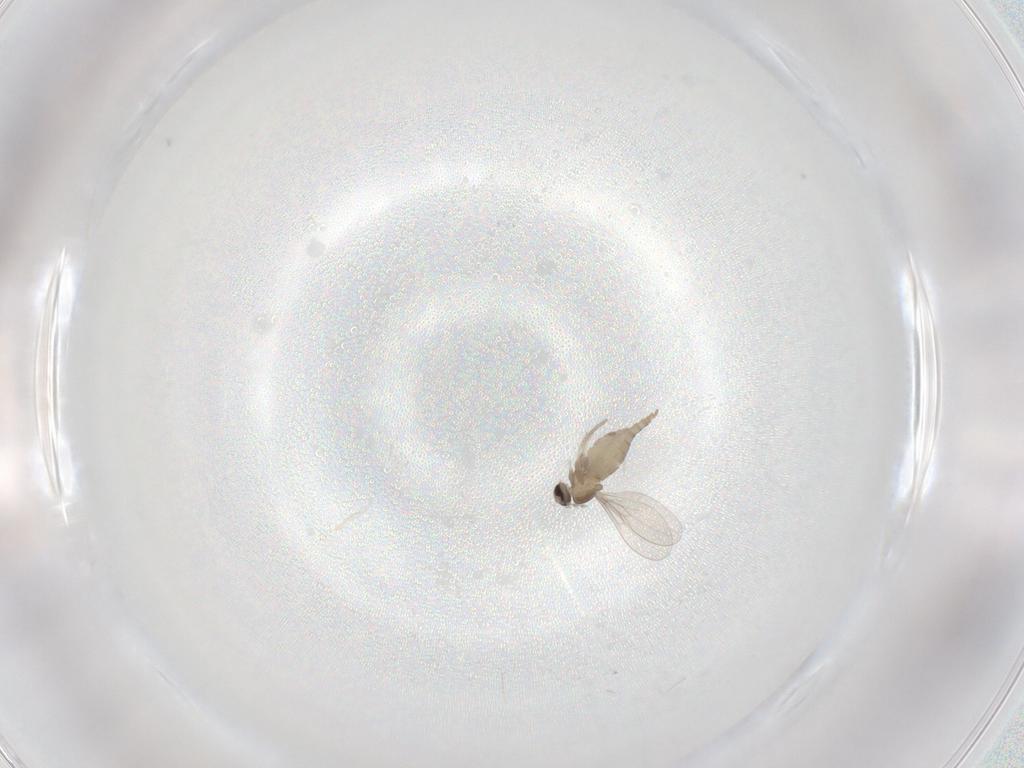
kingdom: Animalia
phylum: Arthropoda
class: Insecta
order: Diptera
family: Cecidomyiidae
